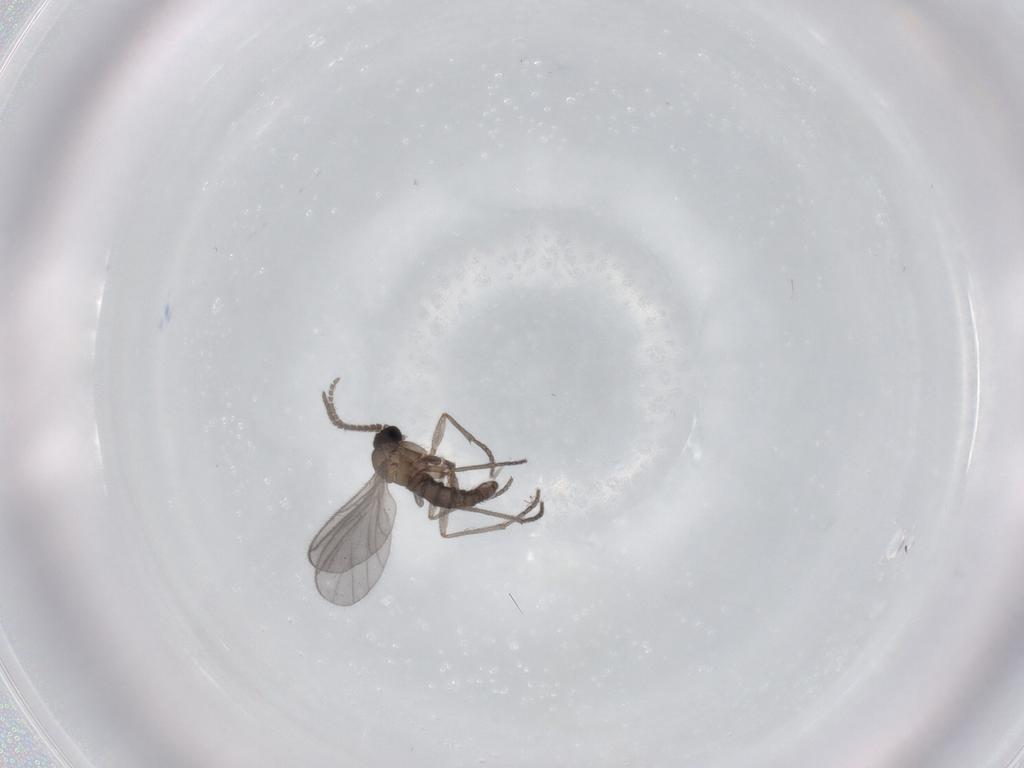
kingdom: Animalia
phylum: Arthropoda
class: Insecta
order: Diptera
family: Sciaridae
